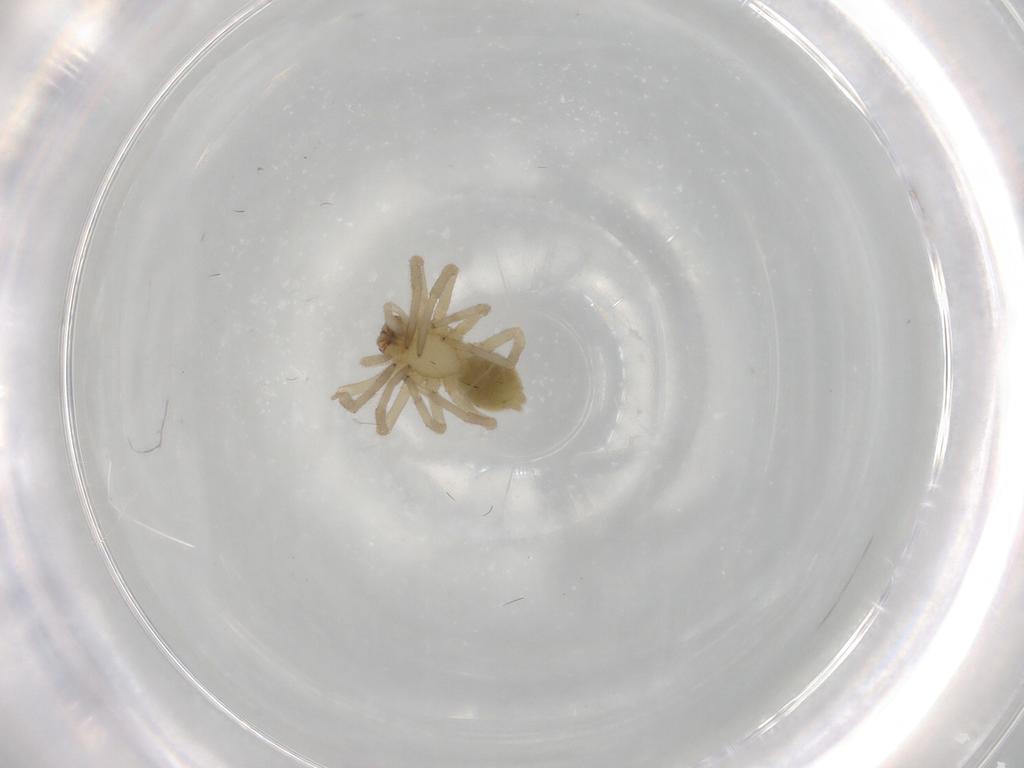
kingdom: Animalia
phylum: Arthropoda
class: Arachnida
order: Araneae
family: Trachelidae
